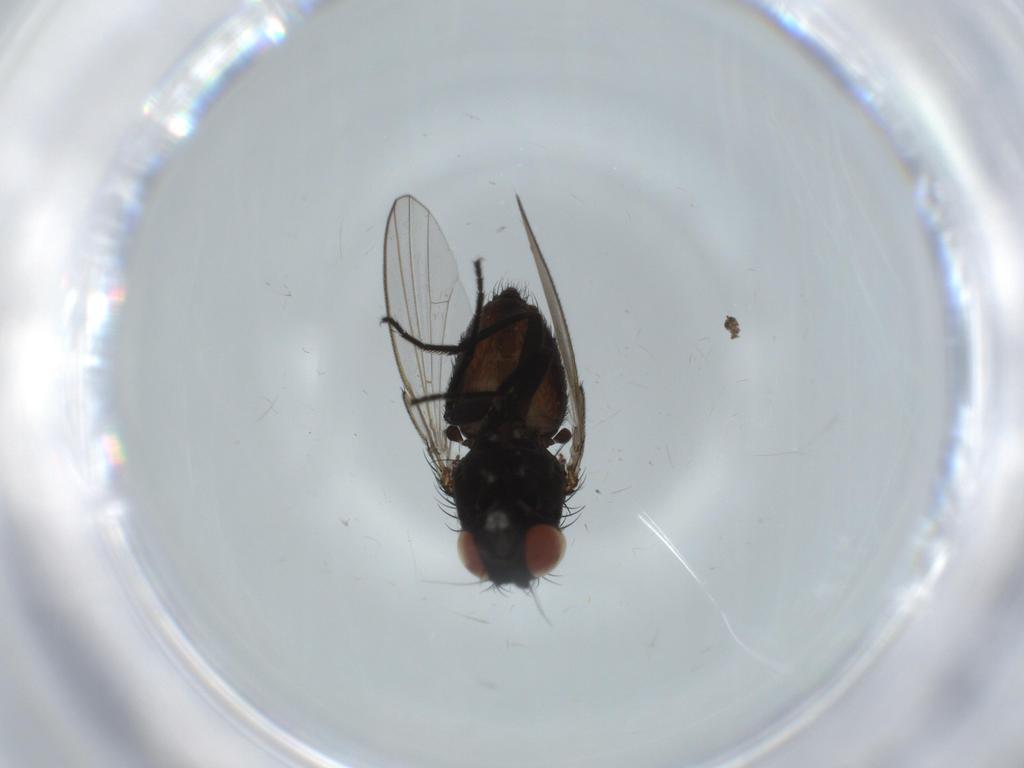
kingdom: Animalia
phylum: Arthropoda
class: Insecta
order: Diptera
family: Milichiidae
